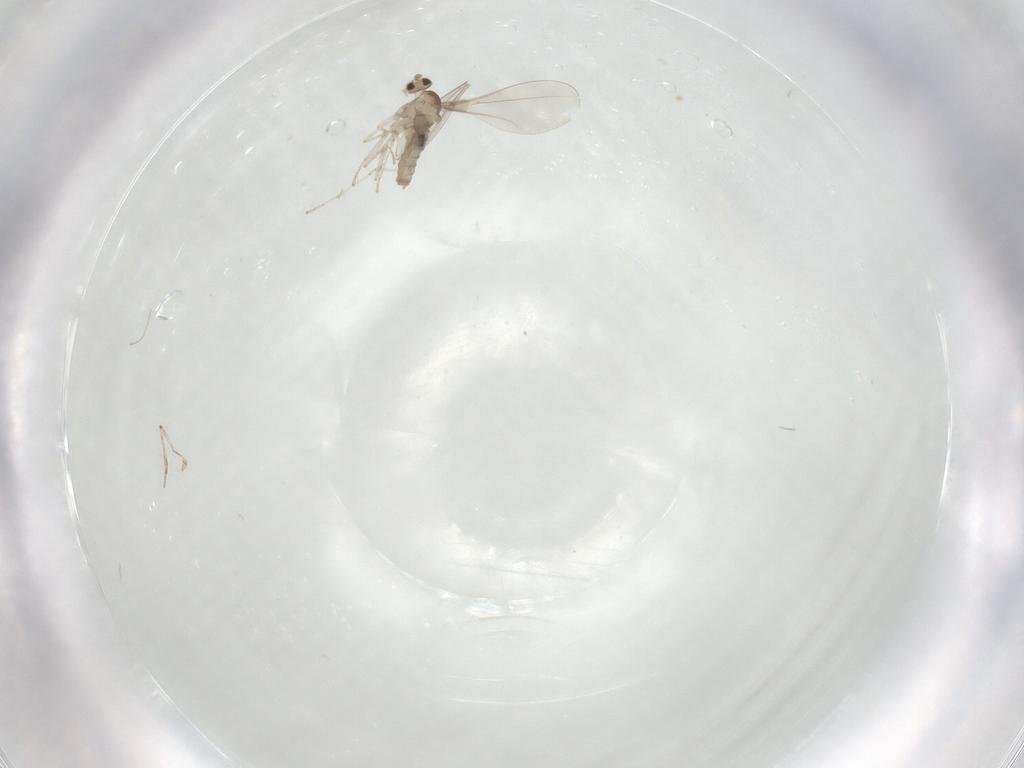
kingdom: Animalia
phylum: Arthropoda
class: Insecta
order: Diptera
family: Cecidomyiidae
